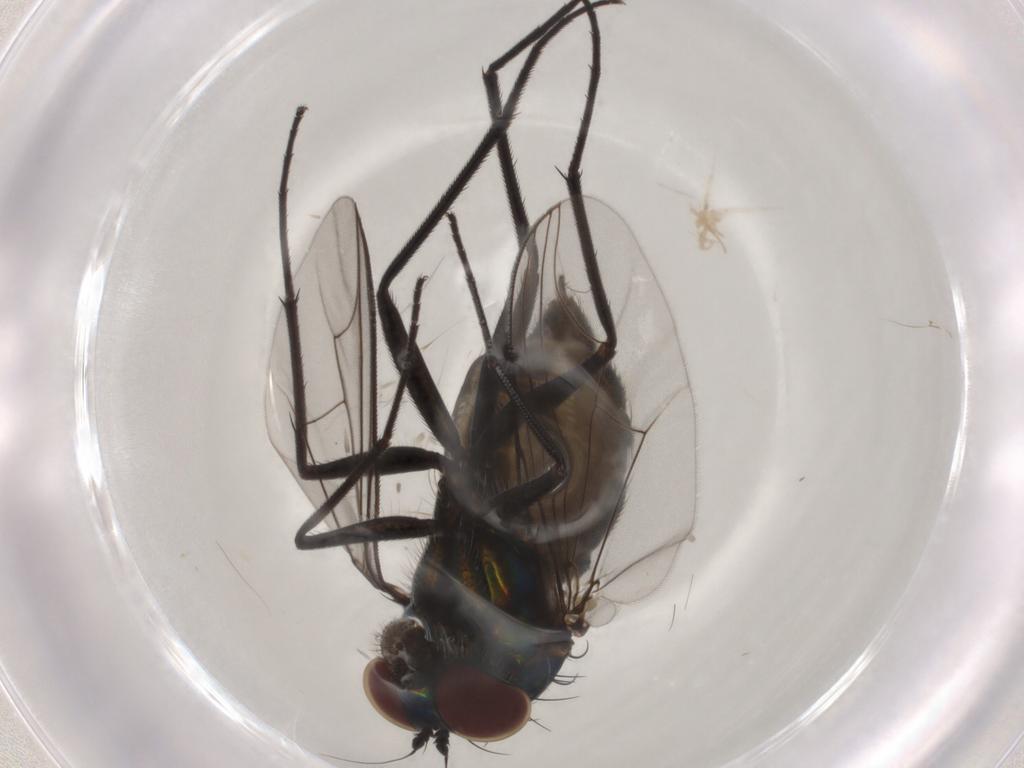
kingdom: Animalia
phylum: Arthropoda
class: Insecta
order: Diptera
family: Dolichopodidae
